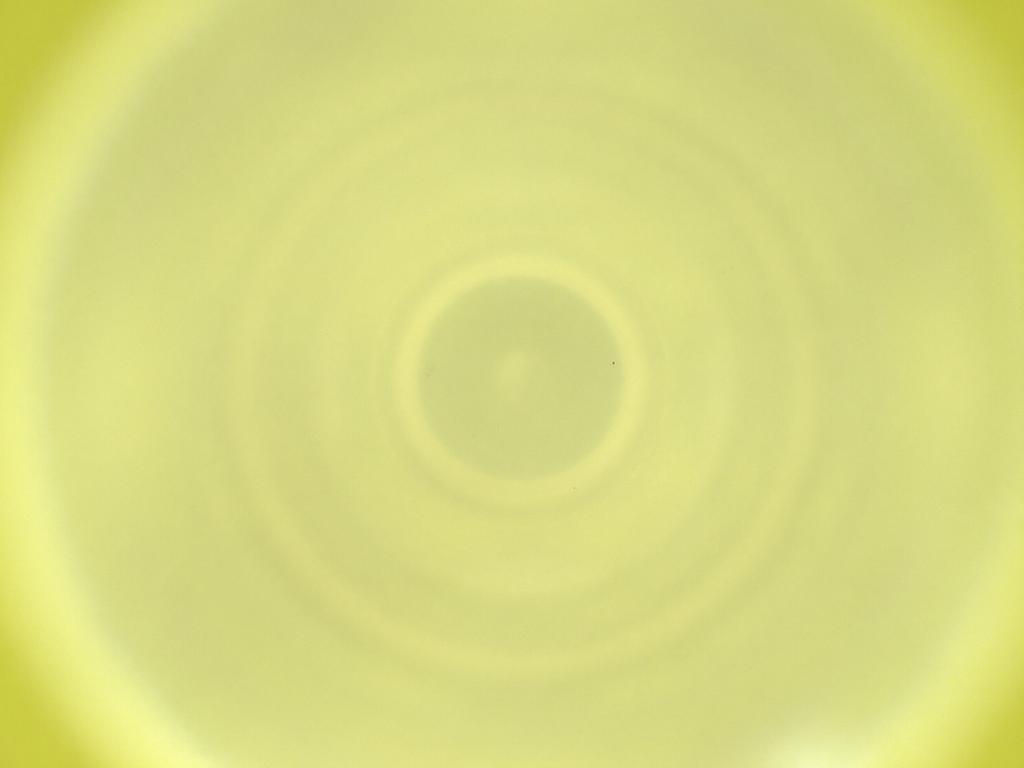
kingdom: Animalia
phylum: Arthropoda
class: Insecta
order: Diptera
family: Cecidomyiidae
